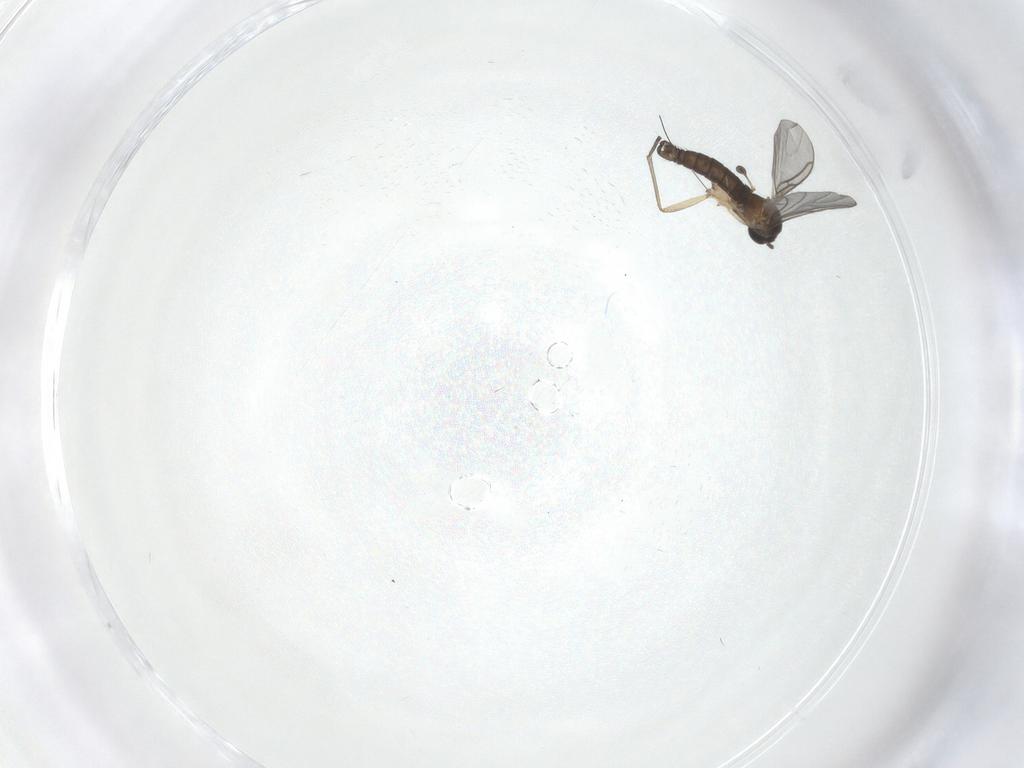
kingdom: Animalia
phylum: Arthropoda
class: Insecta
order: Diptera
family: Sciaridae
